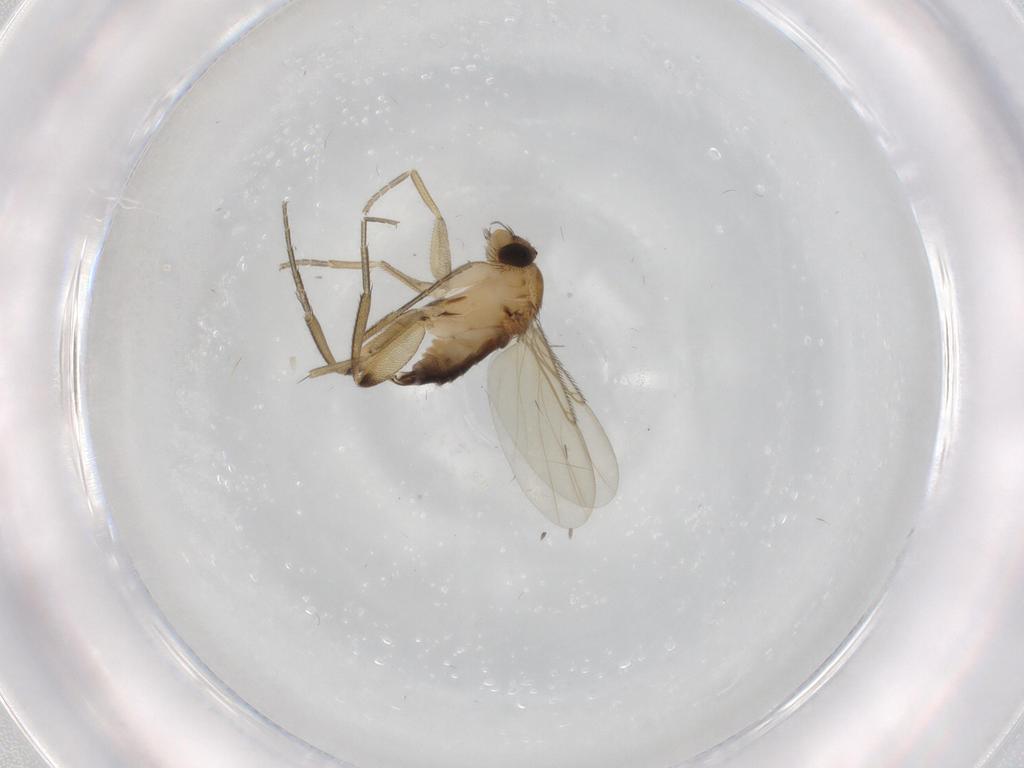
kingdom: Animalia
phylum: Arthropoda
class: Insecta
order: Diptera
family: Phoridae
